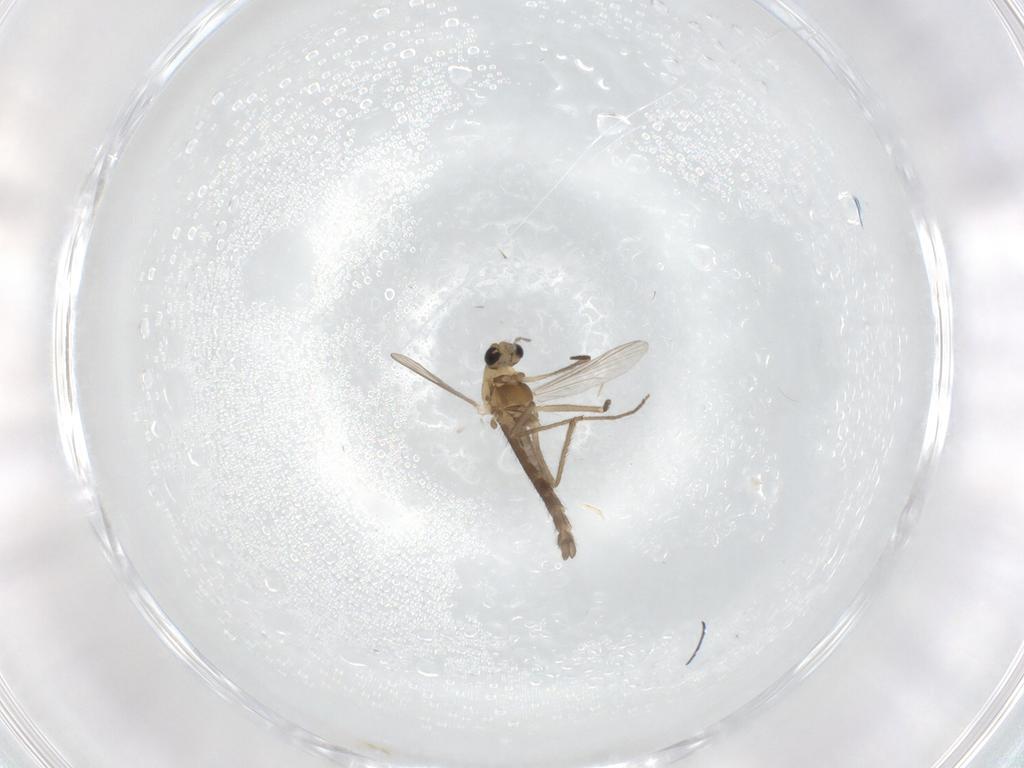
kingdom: Animalia
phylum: Arthropoda
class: Insecta
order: Diptera
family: Chironomidae
